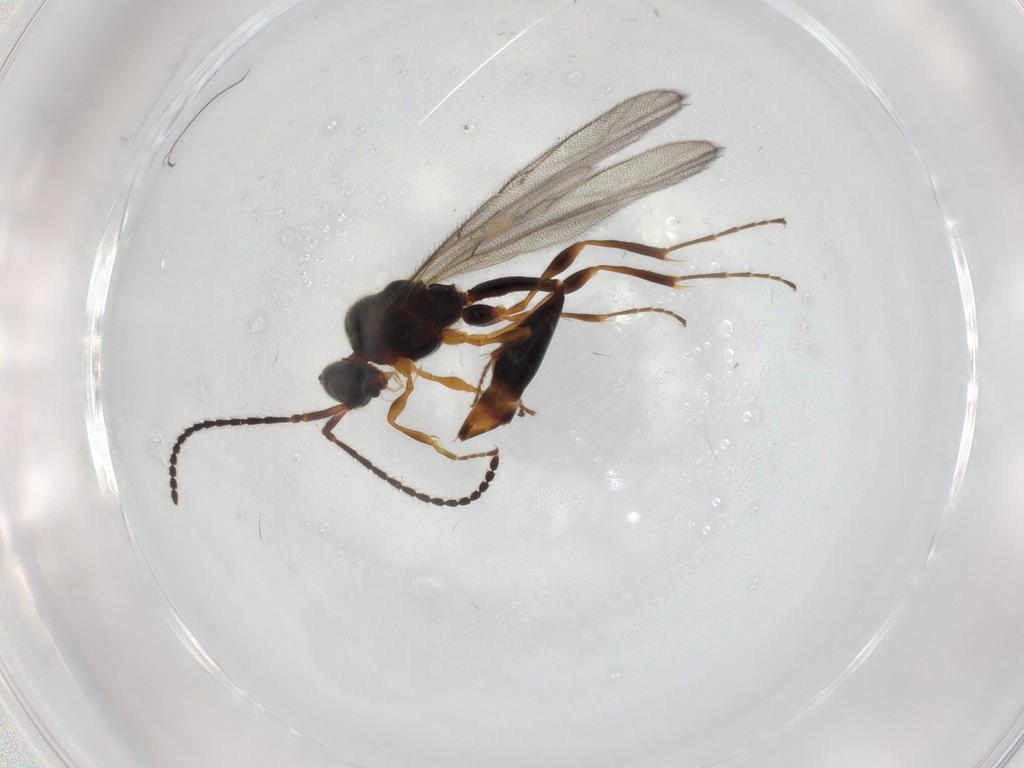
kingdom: Animalia
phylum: Arthropoda
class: Insecta
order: Hymenoptera
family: Diapriidae
